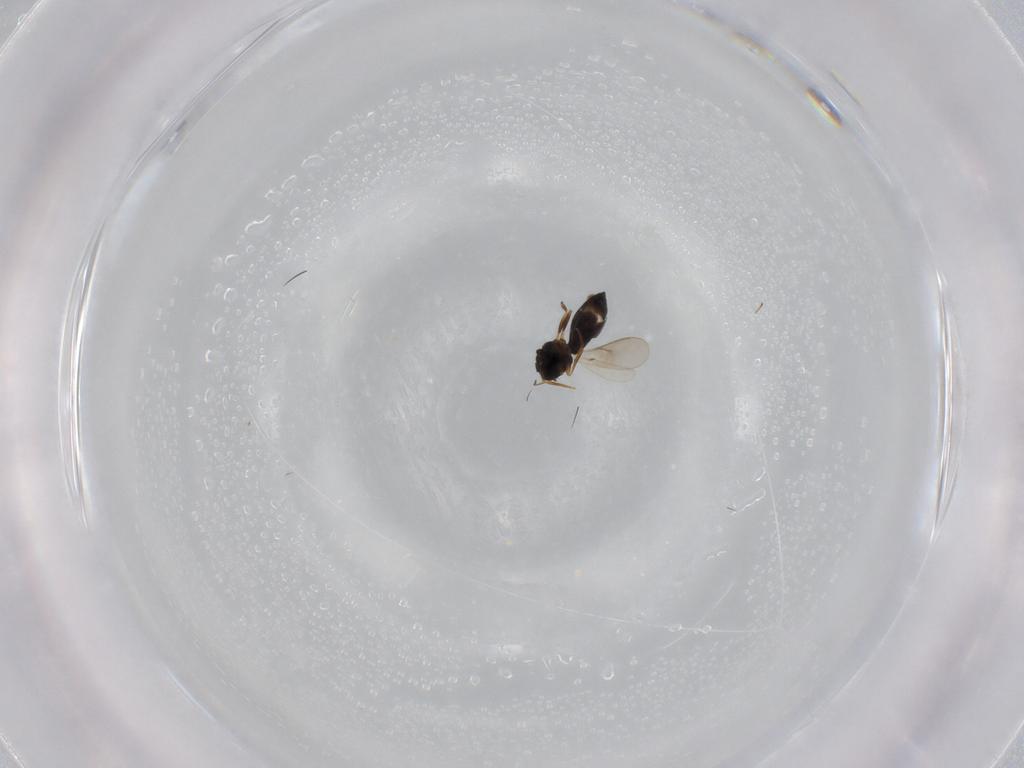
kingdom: Animalia
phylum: Arthropoda
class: Insecta
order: Hymenoptera
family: Scelionidae
